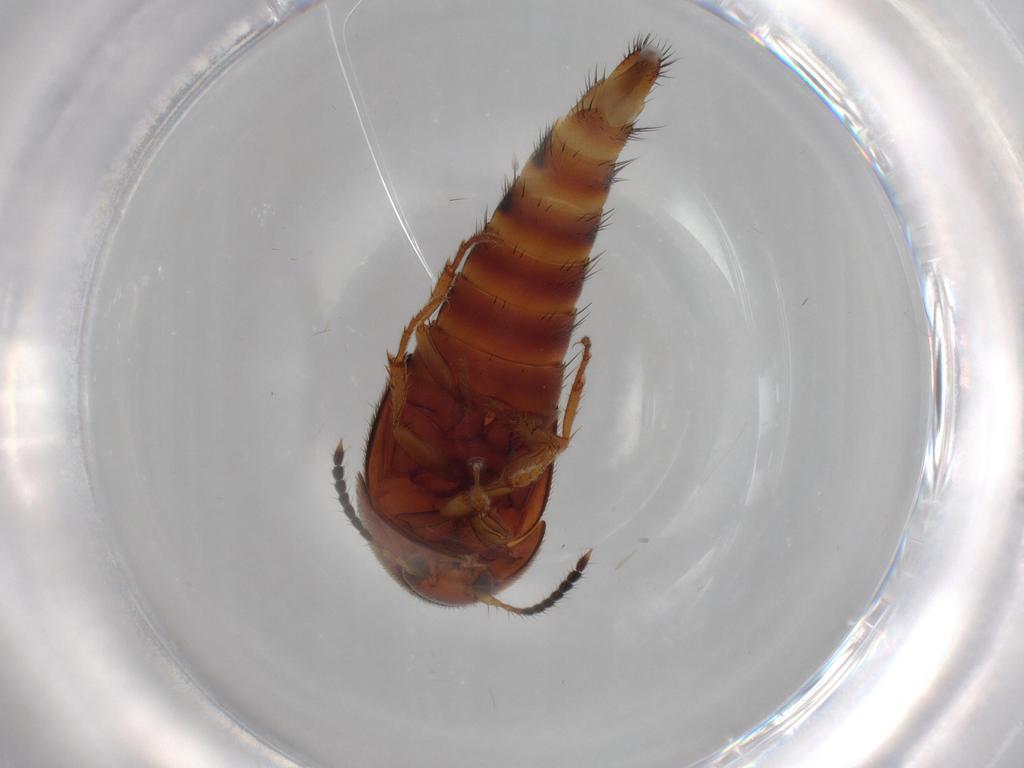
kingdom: Animalia
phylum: Arthropoda
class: Insecta
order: Coleoptera
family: Staphylinidae
